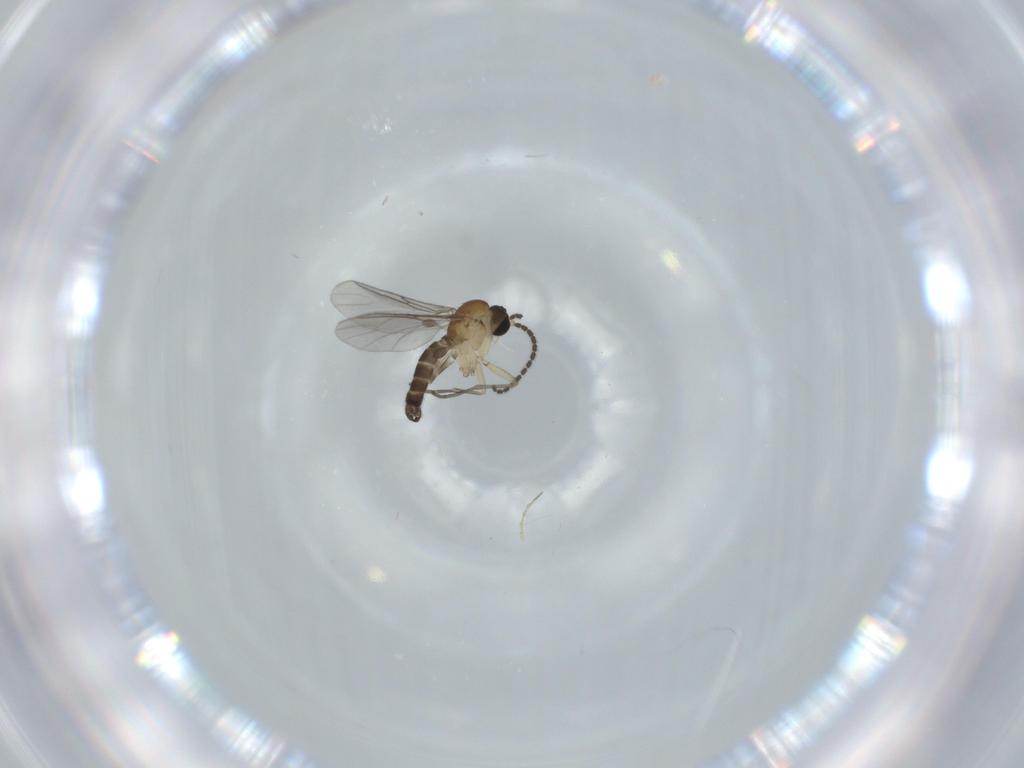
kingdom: Animalia
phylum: Arthropoda
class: Insecta
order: Diptera
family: Sciaridae
